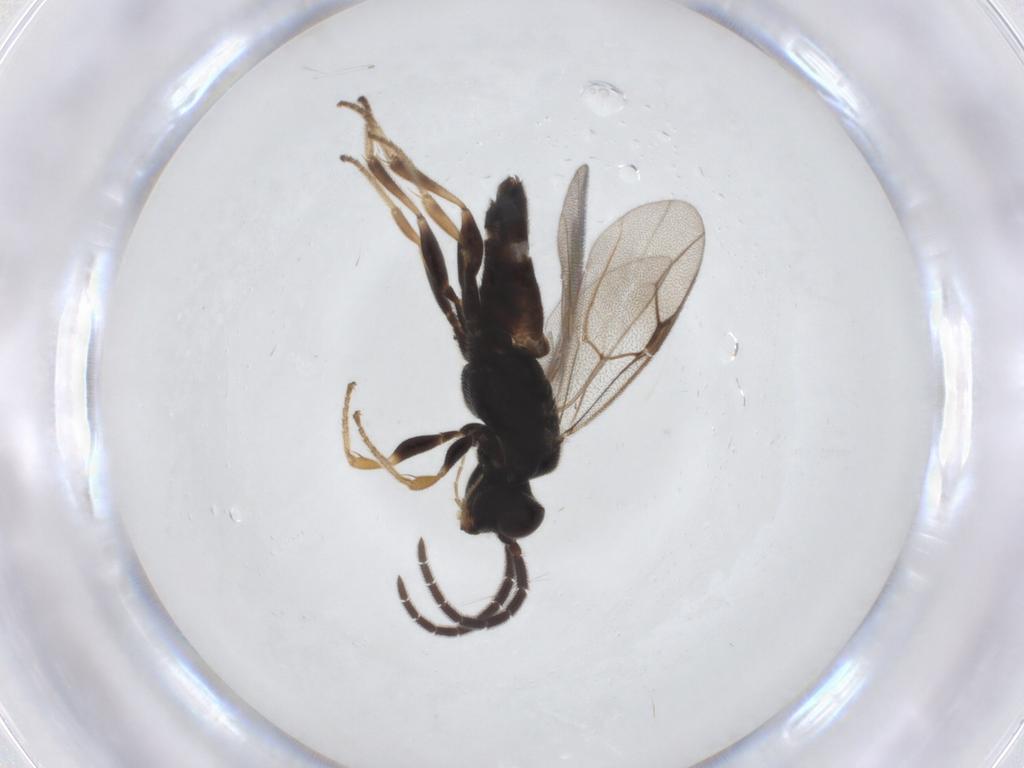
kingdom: Animalia
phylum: Arthropoda
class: Insecta
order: Hymenoptera
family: Dryinidae
